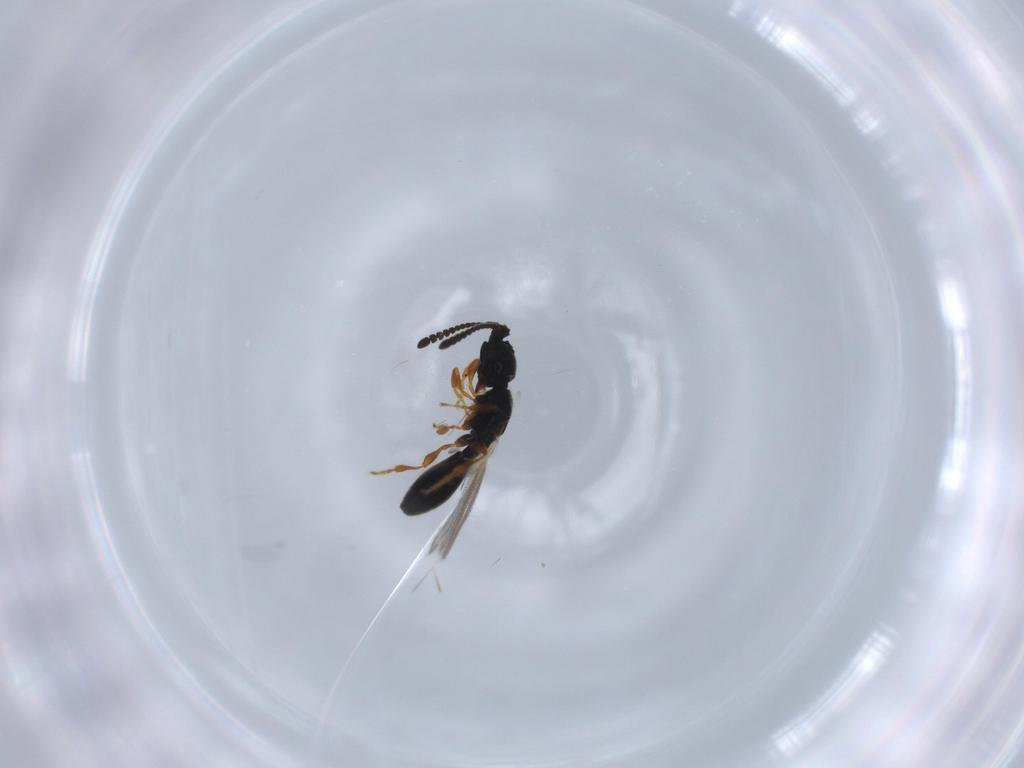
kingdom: Animalia
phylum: Arthropoda
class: Insecta
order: Hymenoptera
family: Diapriidae
